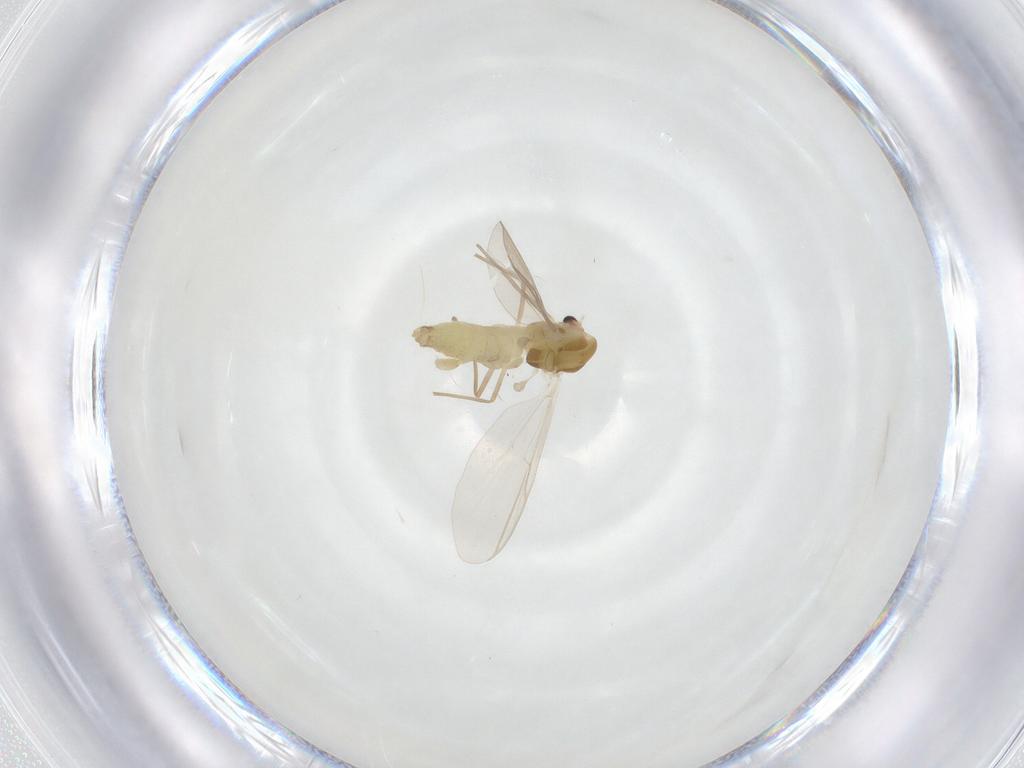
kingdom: Animalia
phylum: Arthropoda
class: Insecta
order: Diptera
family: Chironomidae
